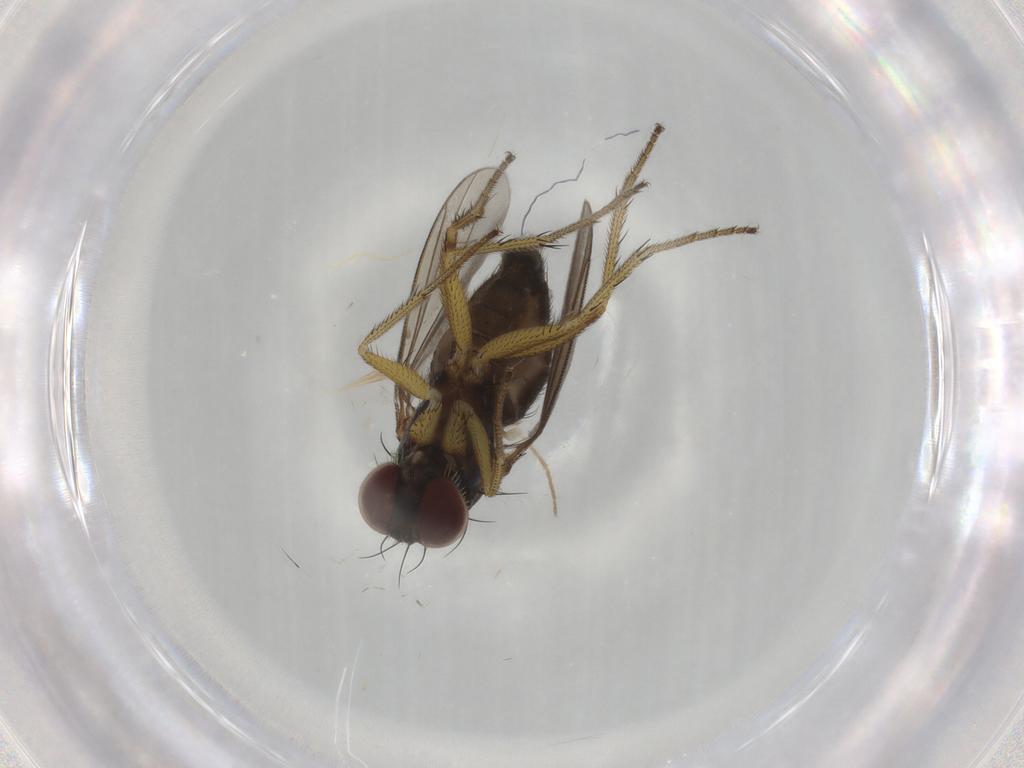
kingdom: Animalia
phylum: Arthropoda
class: Insecta
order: Diptera
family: Dolichopodidae
